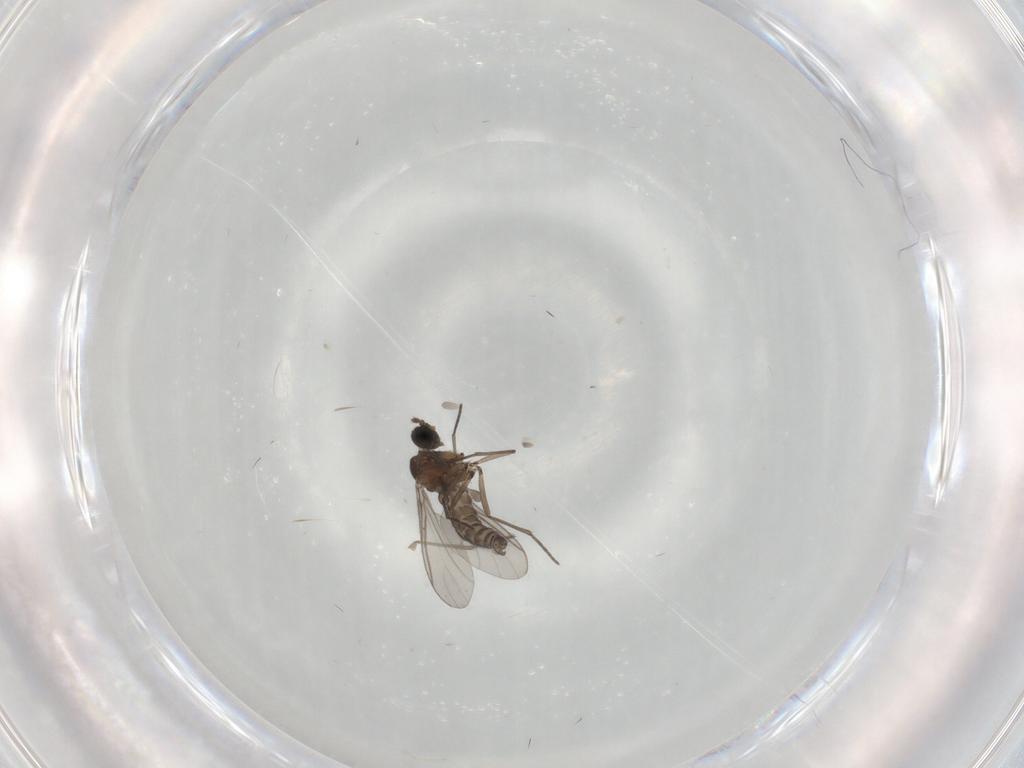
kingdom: Animalia
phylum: Arthropoda
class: Insecta
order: Diptera
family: Sciaridae
